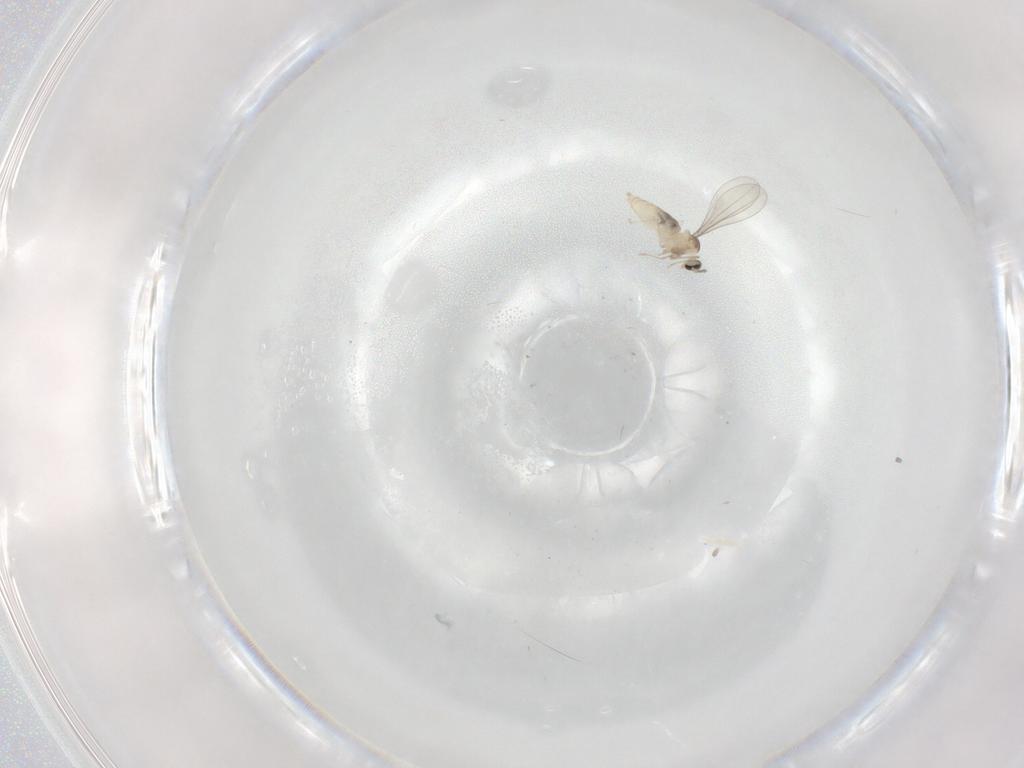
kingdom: Animalia
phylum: Arthropoda
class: Insecta
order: Diptera
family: Cecidomyiidae
